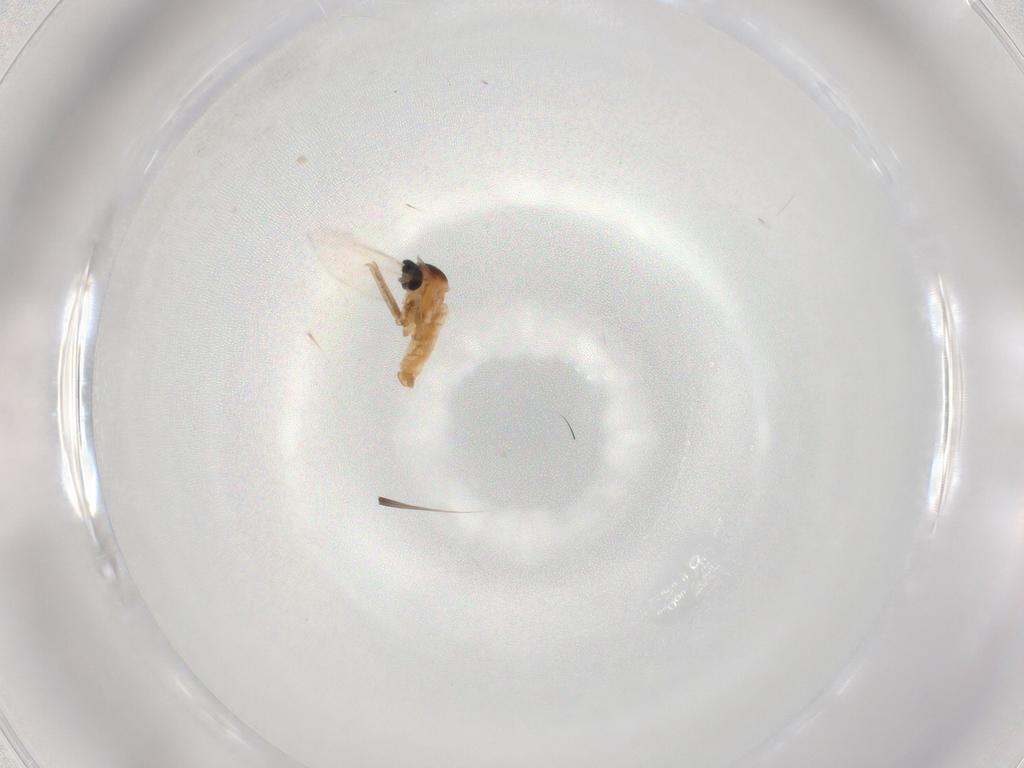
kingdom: Animalia
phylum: Arthropoda
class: Insecta
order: Diptera
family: Cecidomyiidae
